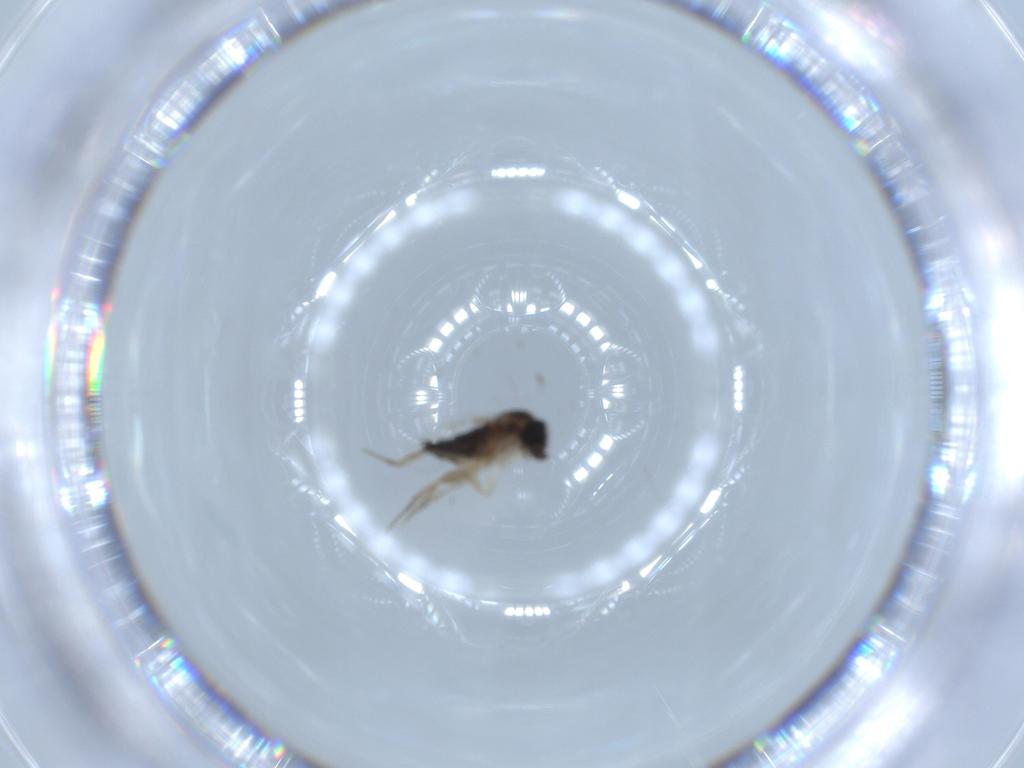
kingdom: Animalia
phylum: Arthropoda
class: Insecta
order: Diptera
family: Phoridae
